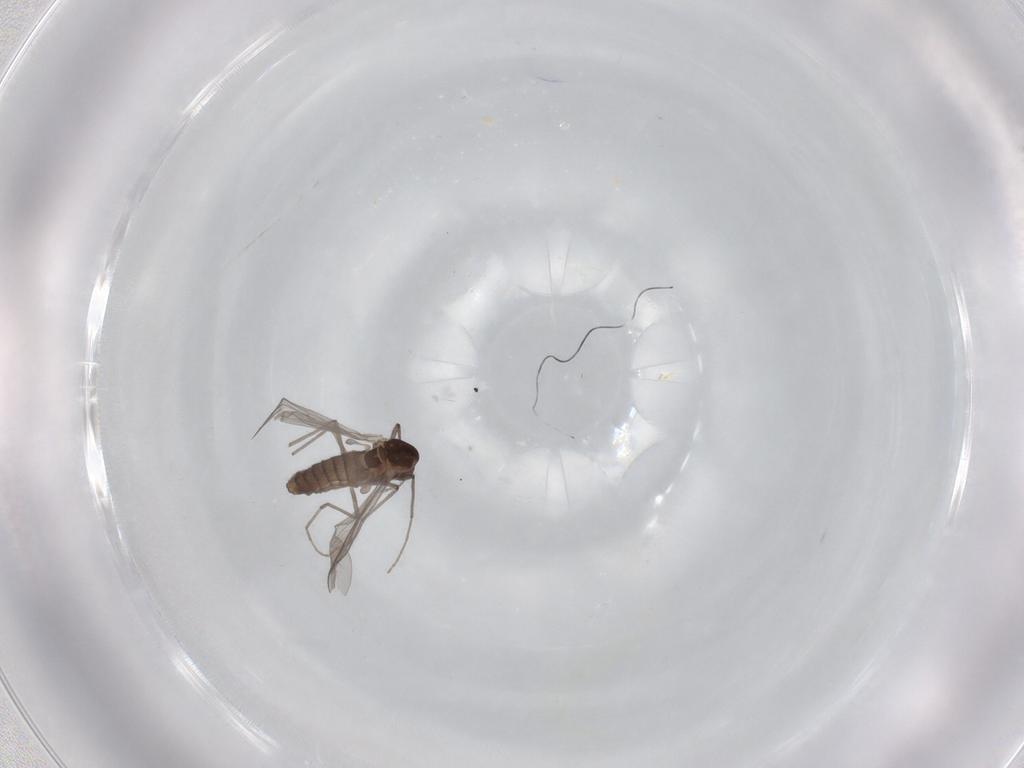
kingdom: Animalia
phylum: Arthropoda
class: Insecta
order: Diptera
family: Chironomidae
